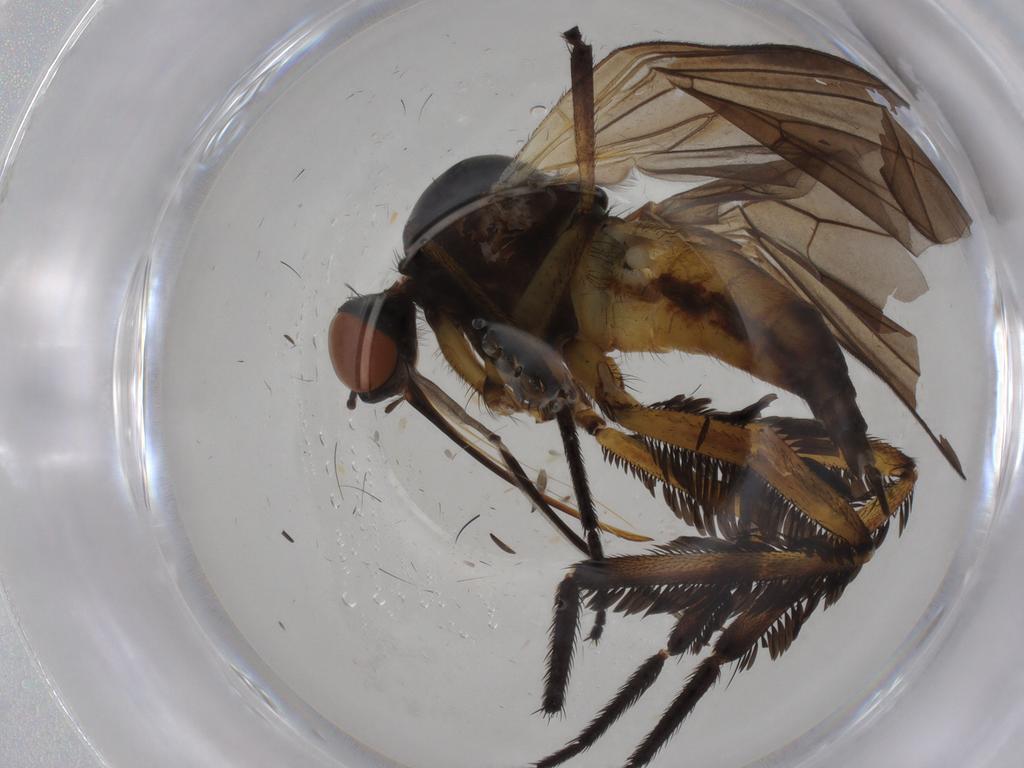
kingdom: Animalia
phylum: Arthropoda
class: Insecta
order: Diptera
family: Empididae
